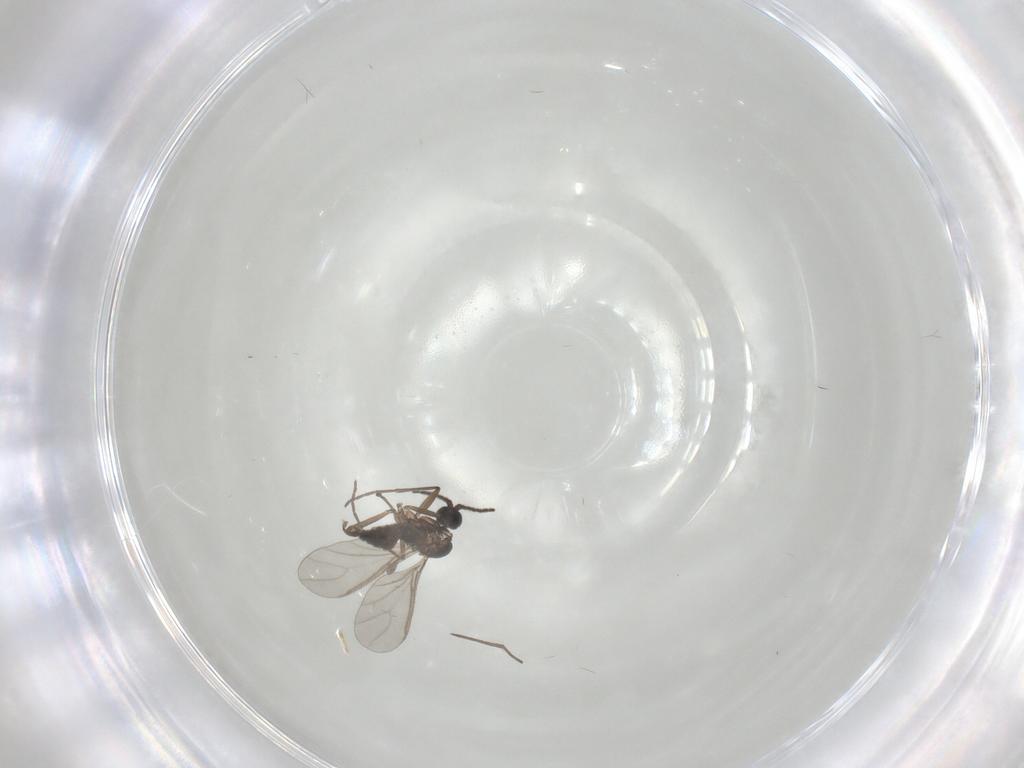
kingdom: Animalia
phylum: Arthropoda
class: Insecta
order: Diptera
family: Sciaridae
